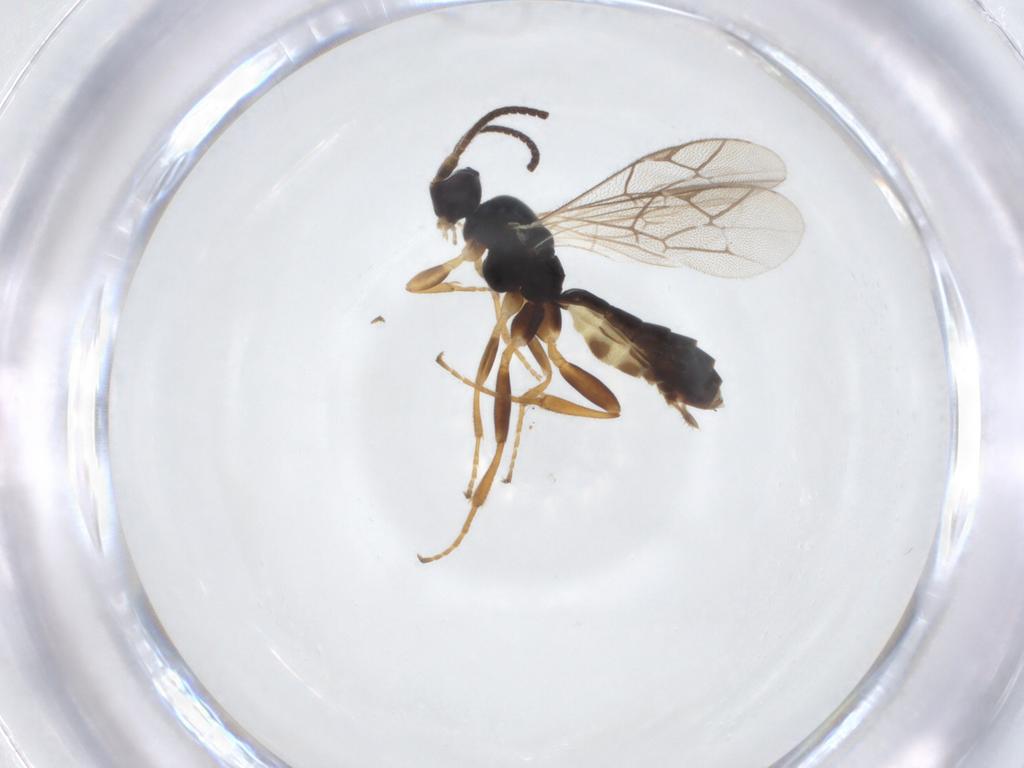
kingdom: Animalia
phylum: Arthropoda
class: Insecta
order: Hymenoptera
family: Ichneumonidae
